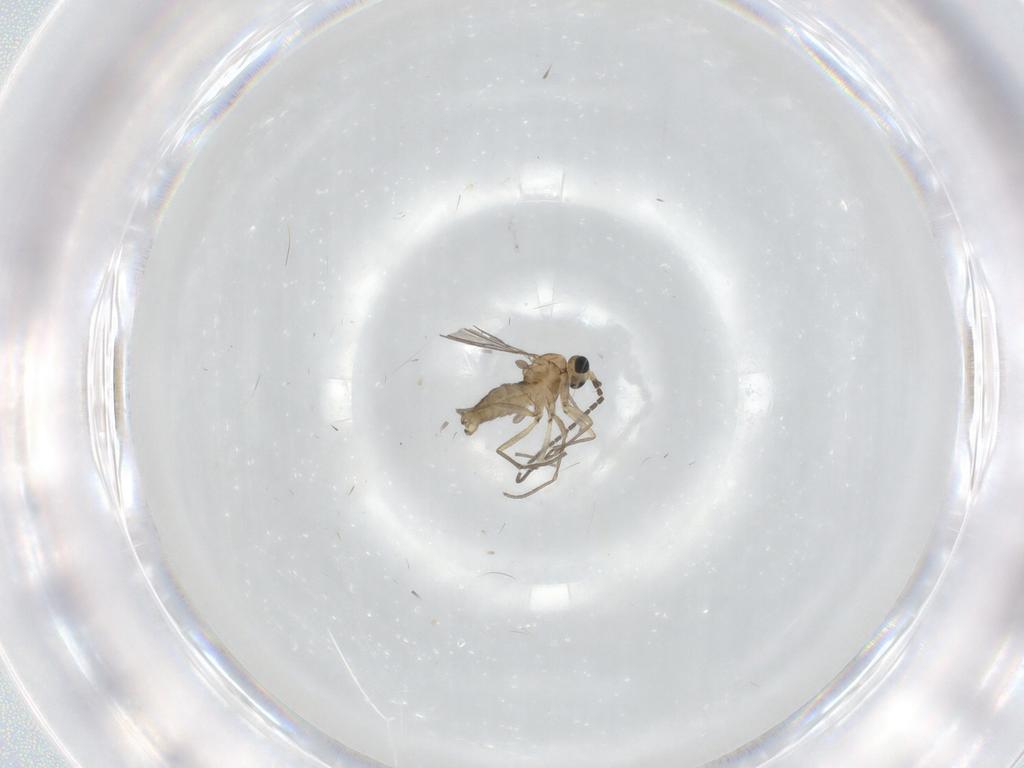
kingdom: Animalia
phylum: Arthropoda
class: Insecta
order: Diptera
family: Sciaridae
